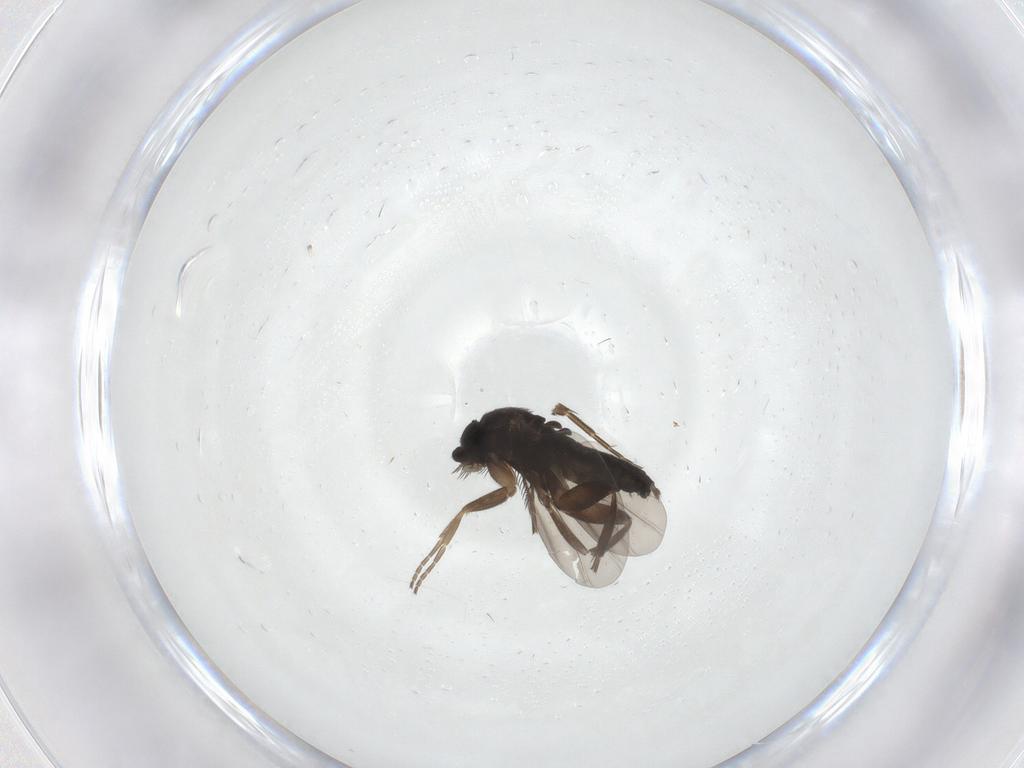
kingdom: Animalia
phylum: Arthropoda
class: Insecta
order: Diptera
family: Phoridae
